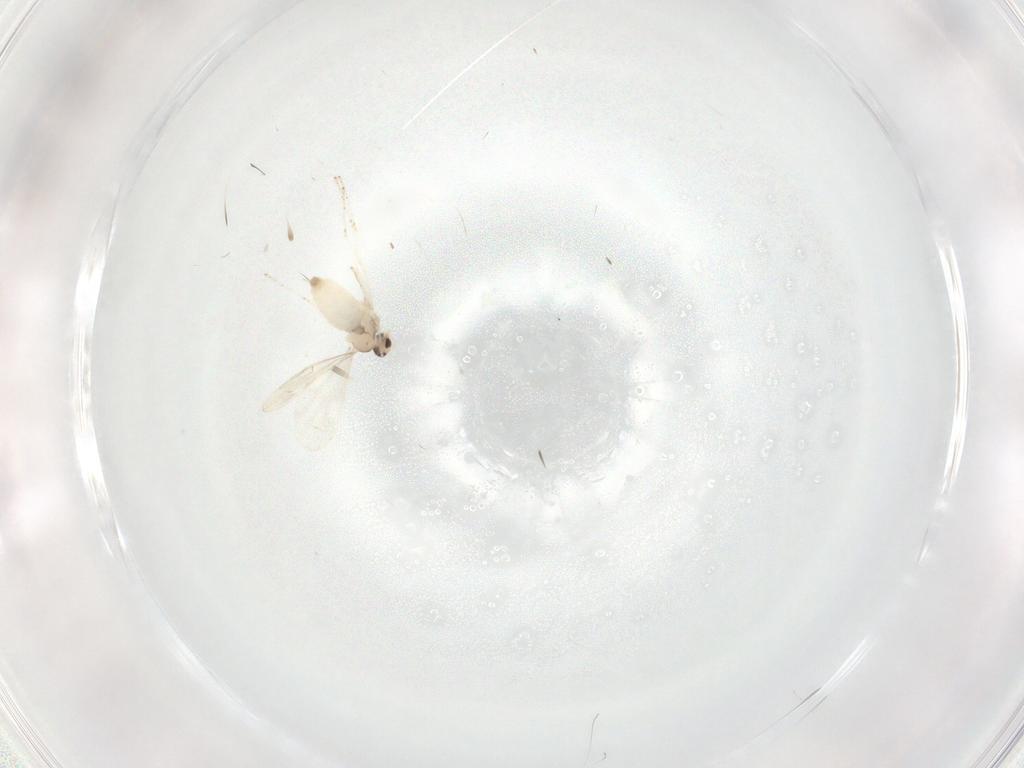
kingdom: Animalia
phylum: Arthropoda
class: Insecta
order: Diptera
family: Cecidomyiidae
